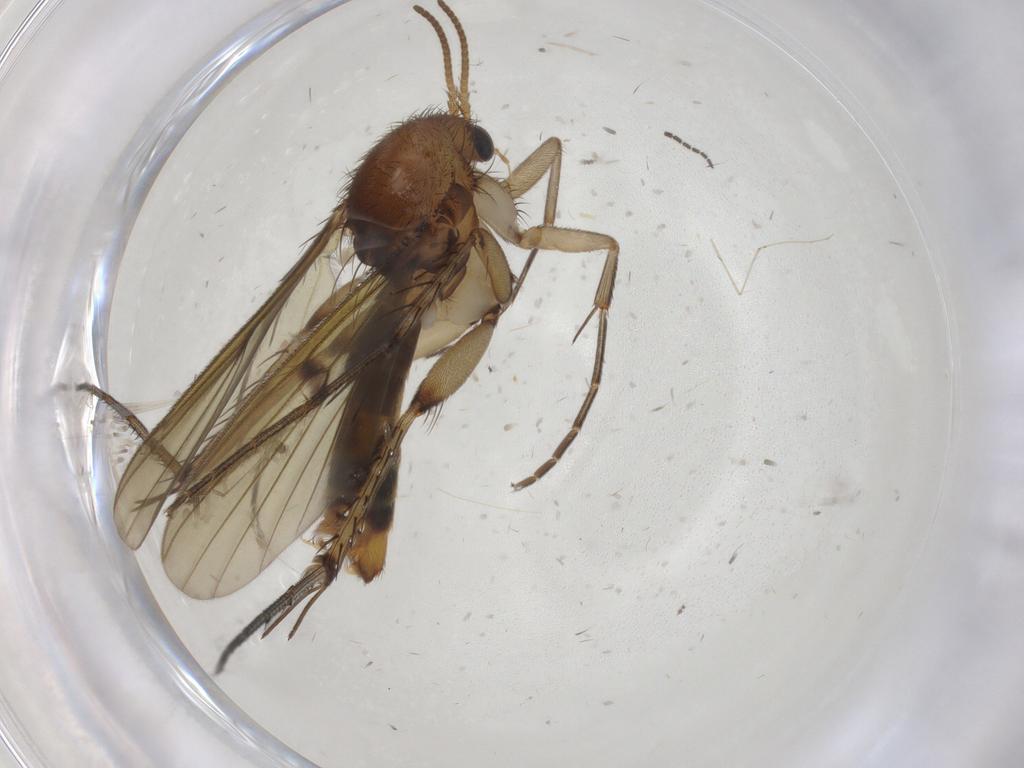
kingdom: Animalia
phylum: Arthropoda
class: Insecta
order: Diptera
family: Mycetophilidae
